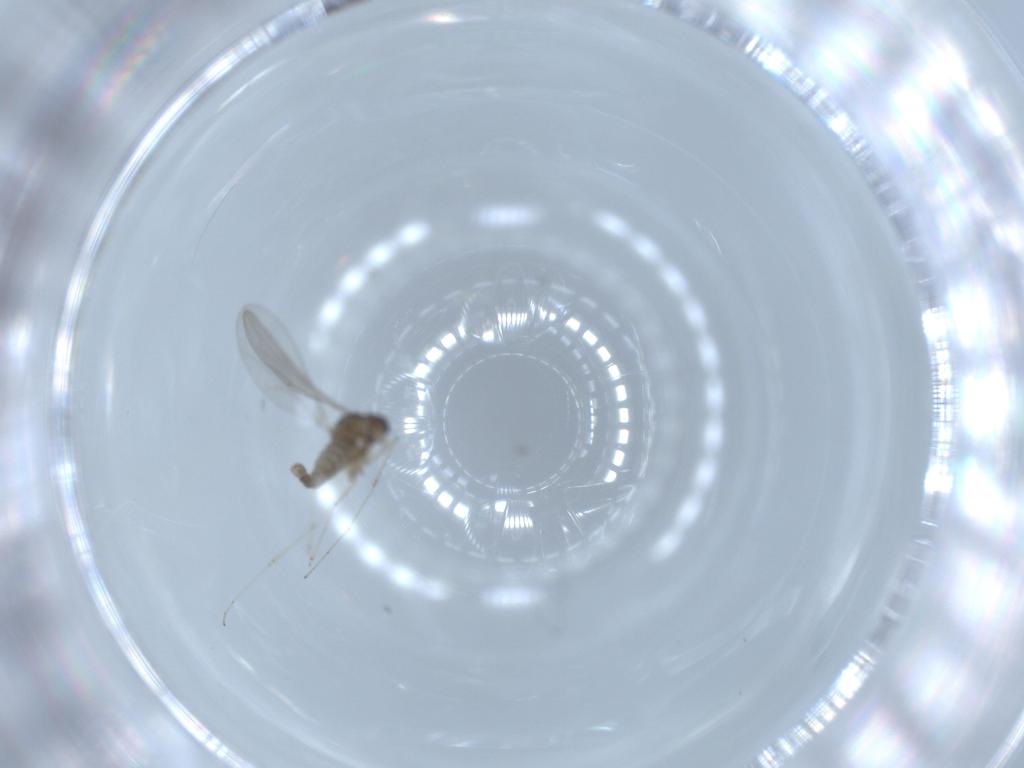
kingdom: Animalia
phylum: Arthropoda
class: Insecta
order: Diptera
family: Cecidomyiidae
